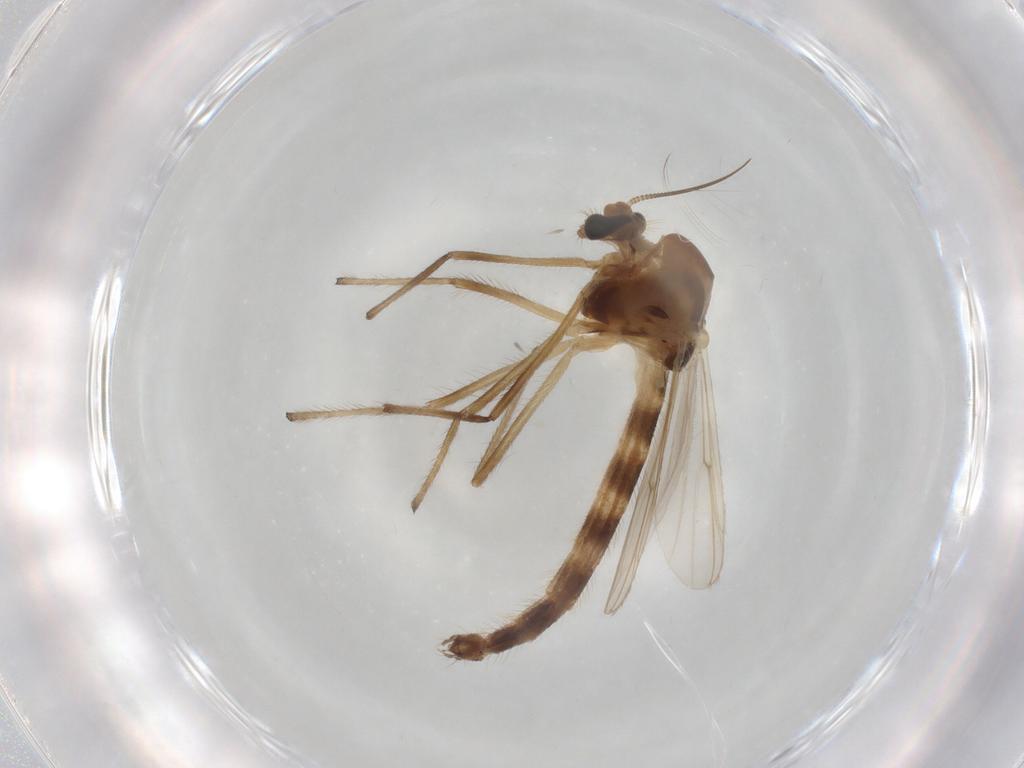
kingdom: Animalia
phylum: Arthropoda
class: Insecta
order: Diptera
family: Chironomidae
